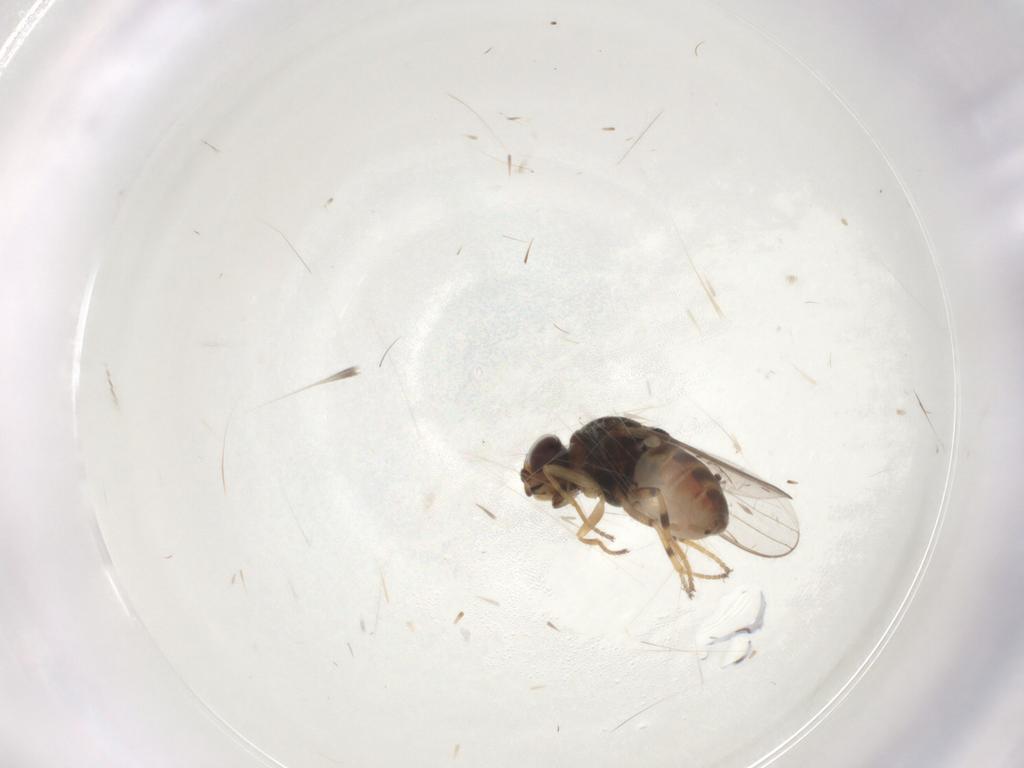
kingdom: Animalia
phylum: Arthropoda
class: Insecta
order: Diptera
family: Chloropidae
